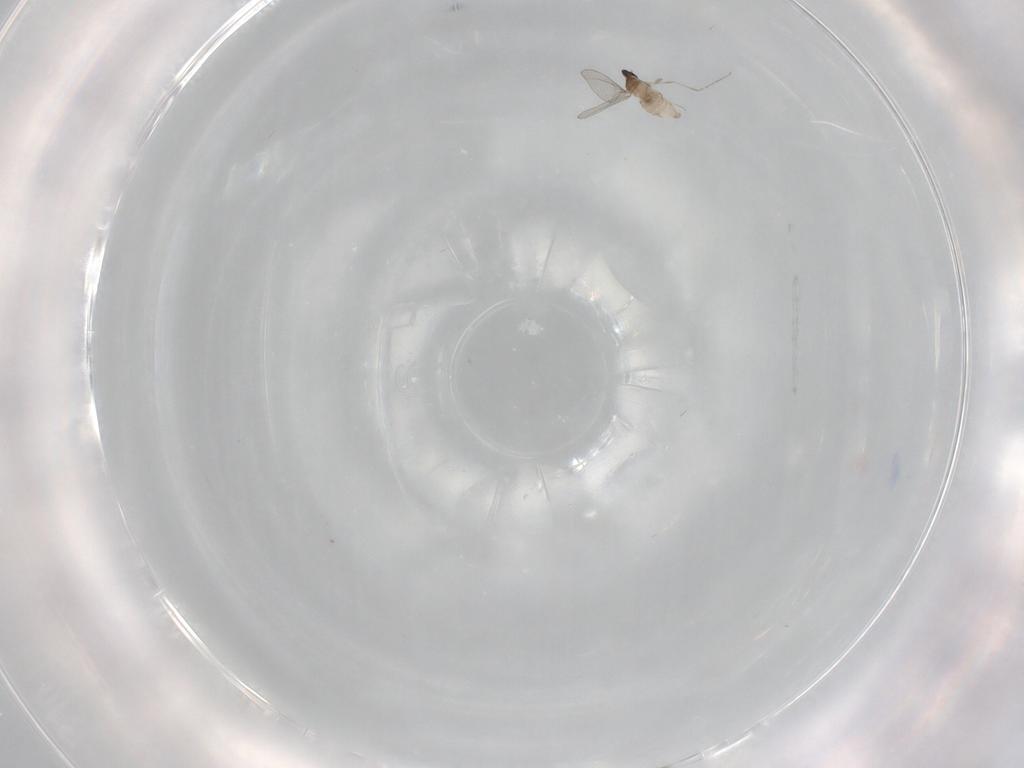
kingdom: Animalia
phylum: Arthropoda
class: Insecta
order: Diptera
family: Cecidomyiidae
